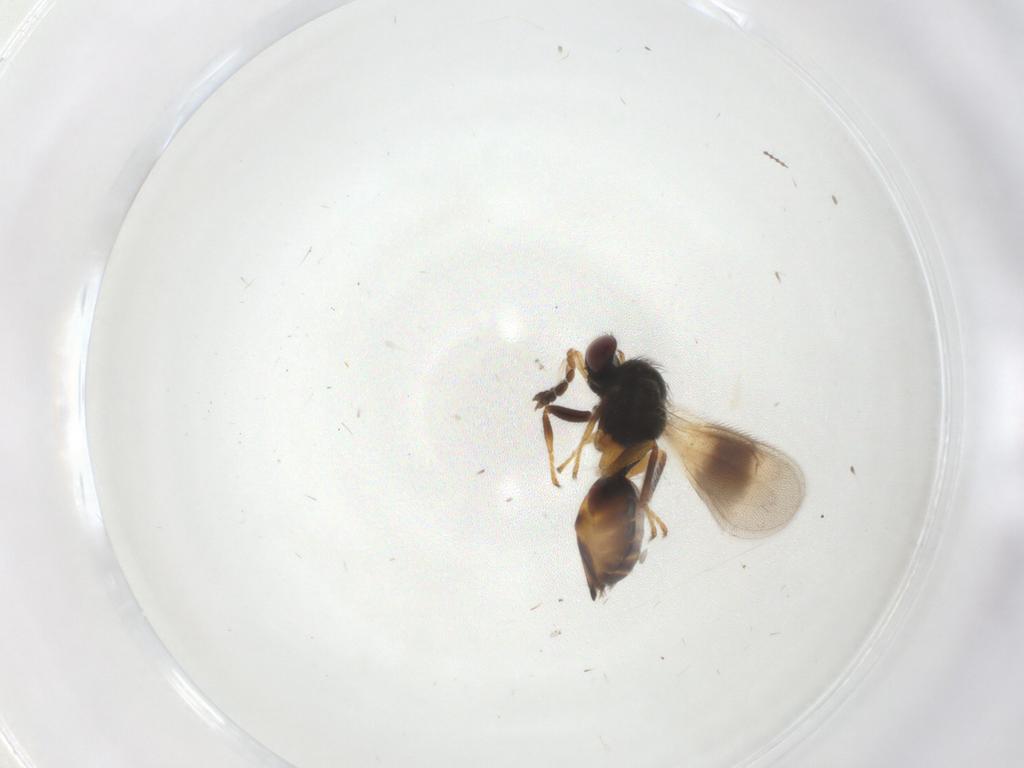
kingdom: Animalia
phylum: Arthropoda
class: Insecta
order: Hymenoptera
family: Eulophidae
